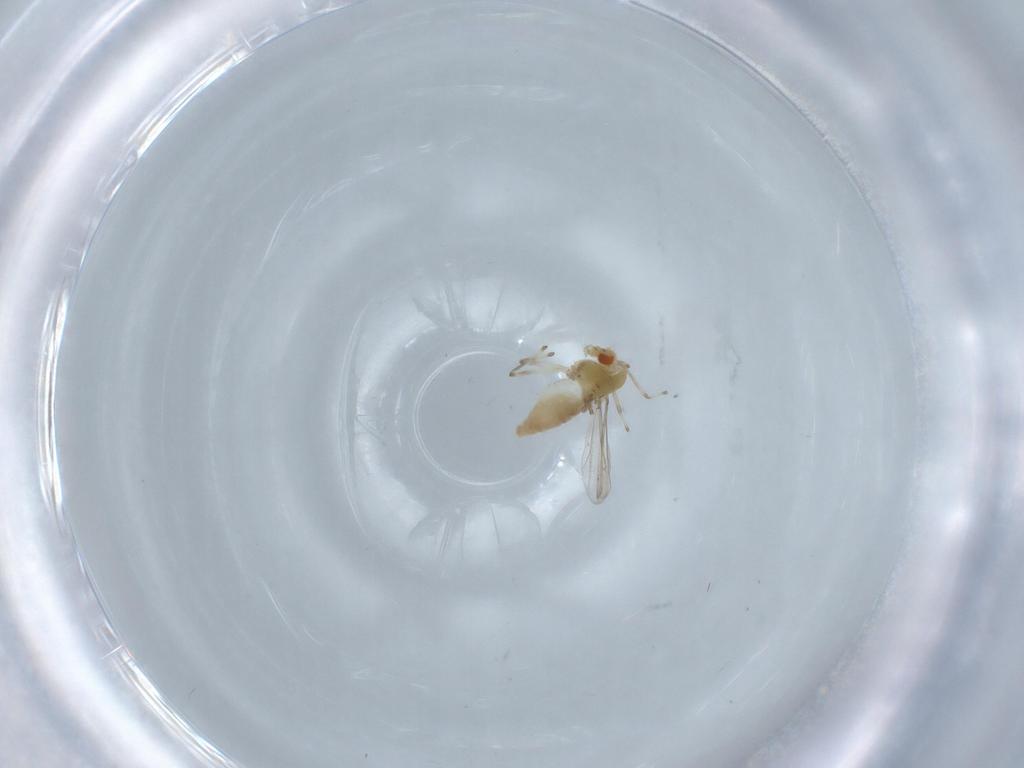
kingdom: Animalia
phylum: Arthropoda
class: Insecta
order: Diptera
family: Chironomidae
